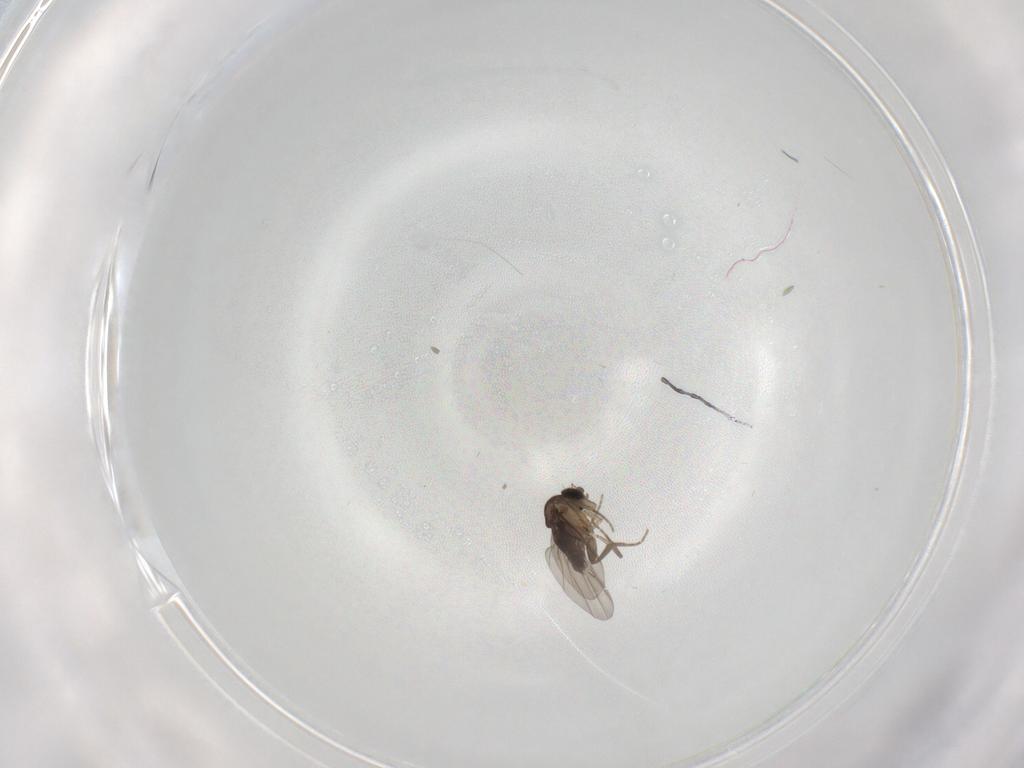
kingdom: Animalia
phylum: Arthropoda
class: Insecta
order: Diptera
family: Phoridae
